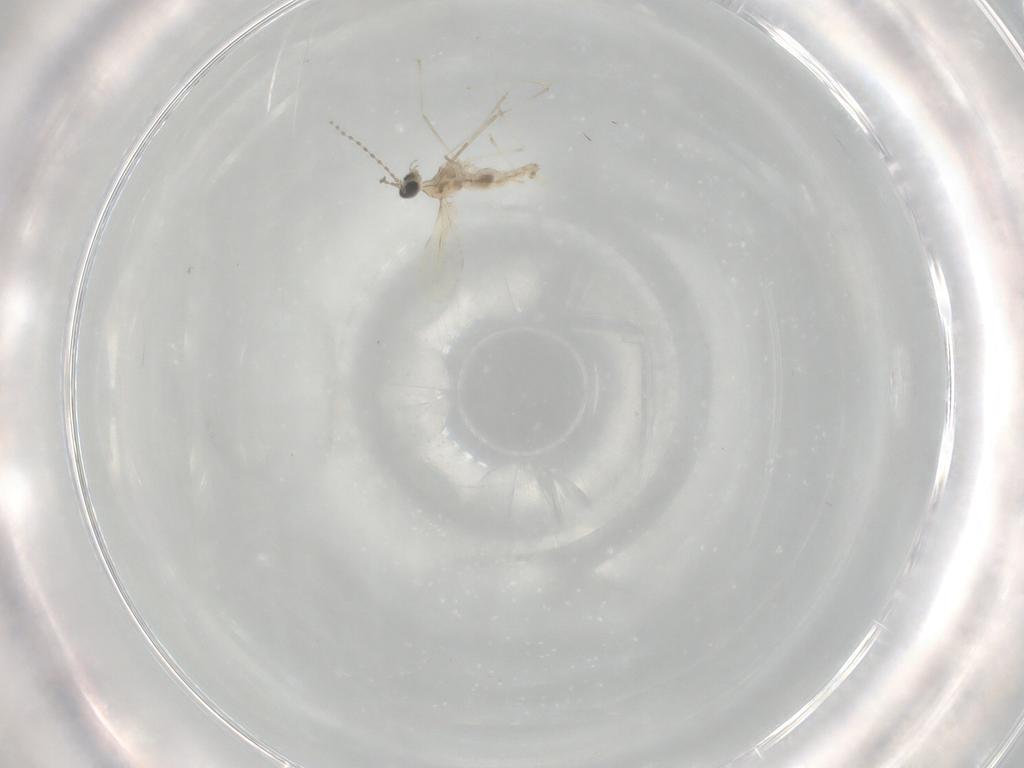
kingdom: Animalia
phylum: Arthropoda
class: Insecta
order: Diptera
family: Cecidomyiidae
